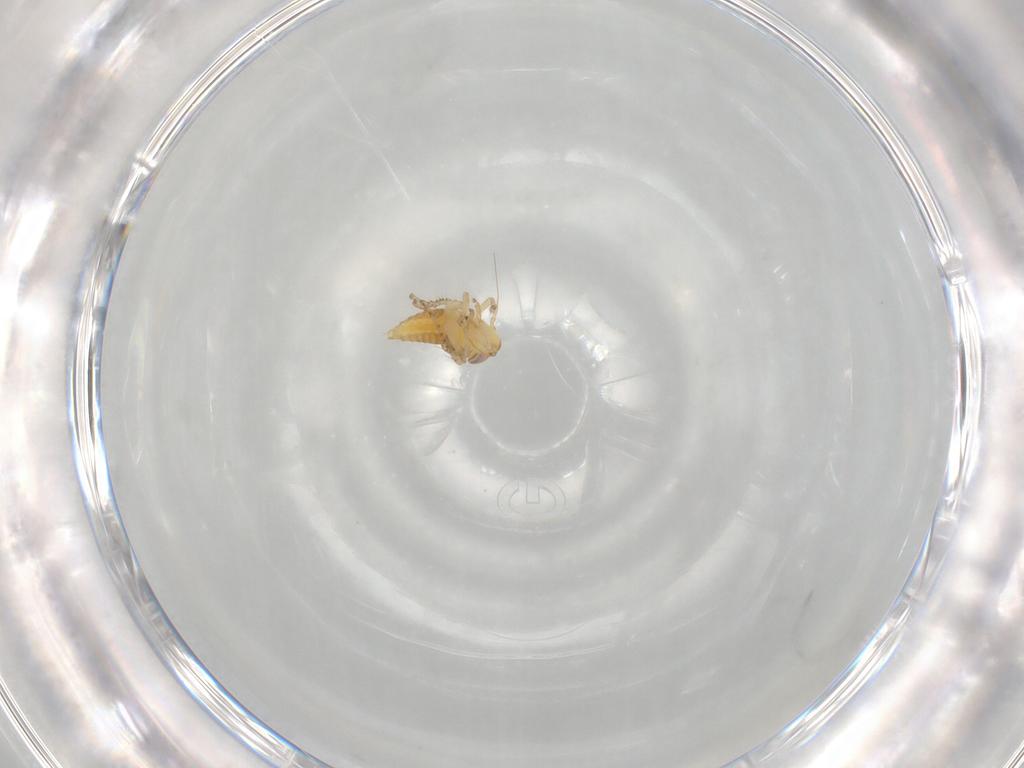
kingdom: Animalia
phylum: Arthropoda
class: Insecta
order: Hemiptera
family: Cicadellidae
